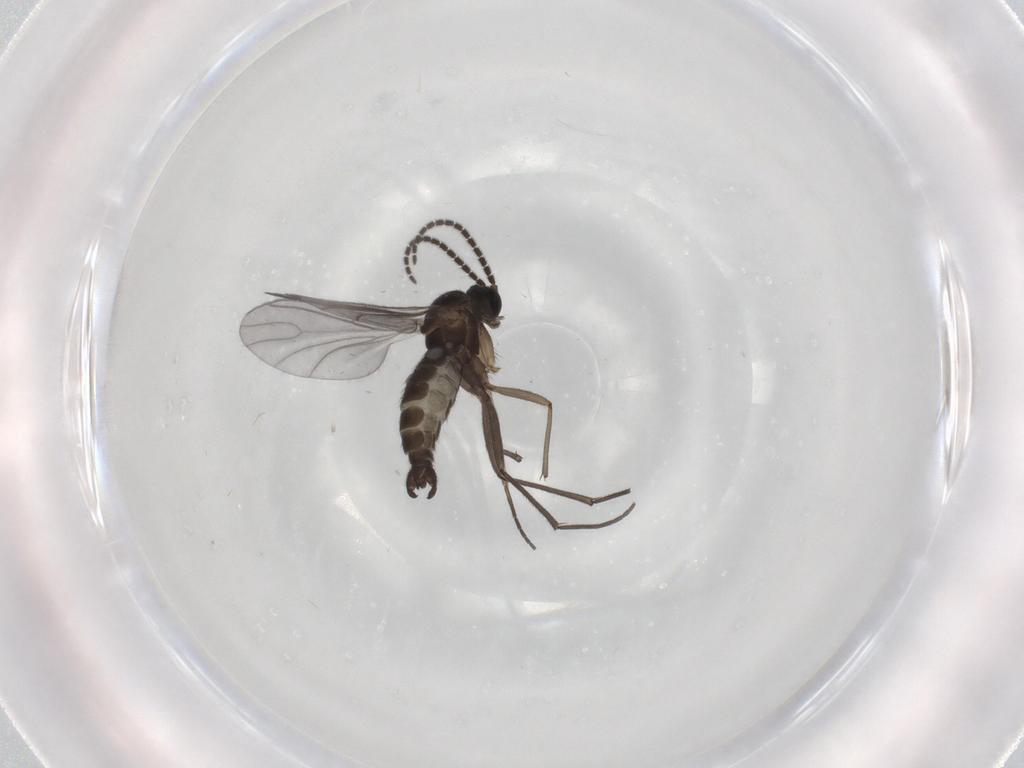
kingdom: Animalia
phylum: Arthropoda
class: Insecta
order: Diptera
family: Sciaridae
